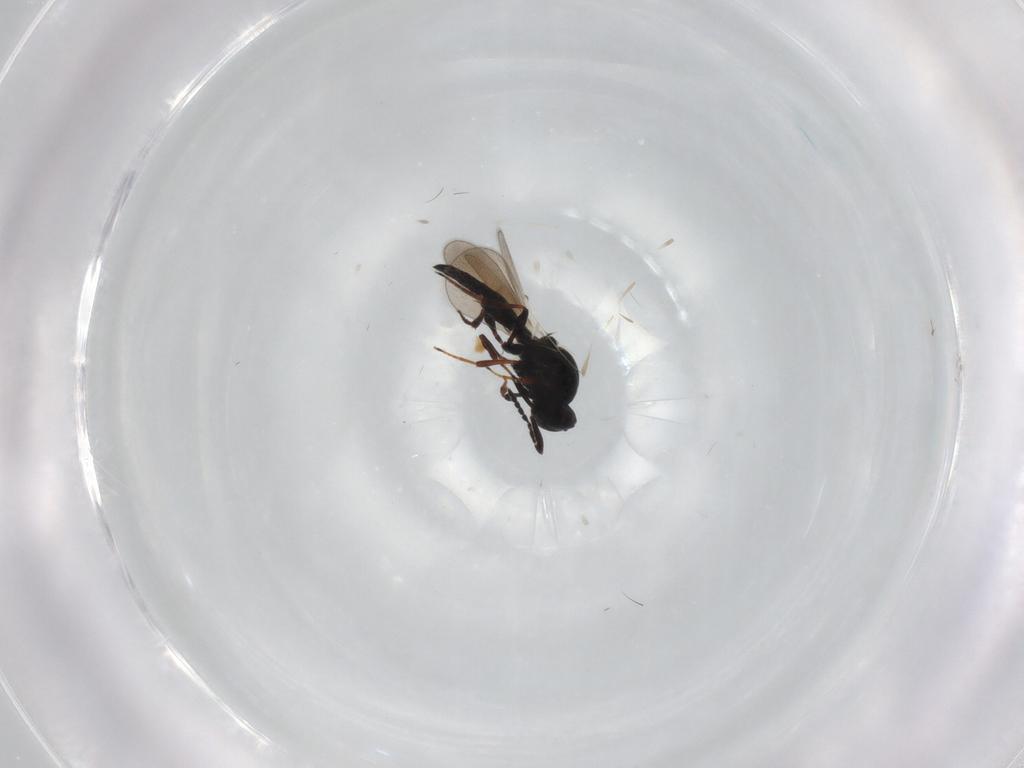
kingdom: Animalia
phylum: Arthropoda
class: Insecta
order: Hymenoptera
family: Platygastridae
